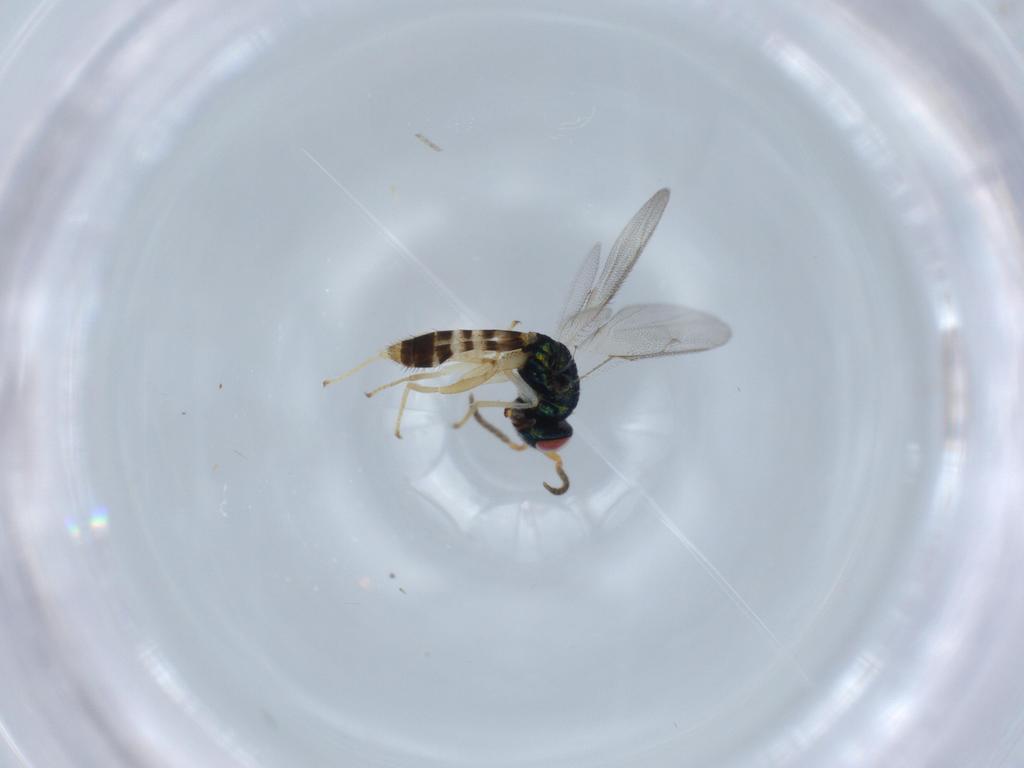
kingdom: Animalia
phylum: Arthropoda
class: Insecta
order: Hymenoptera
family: Pteromalidae
